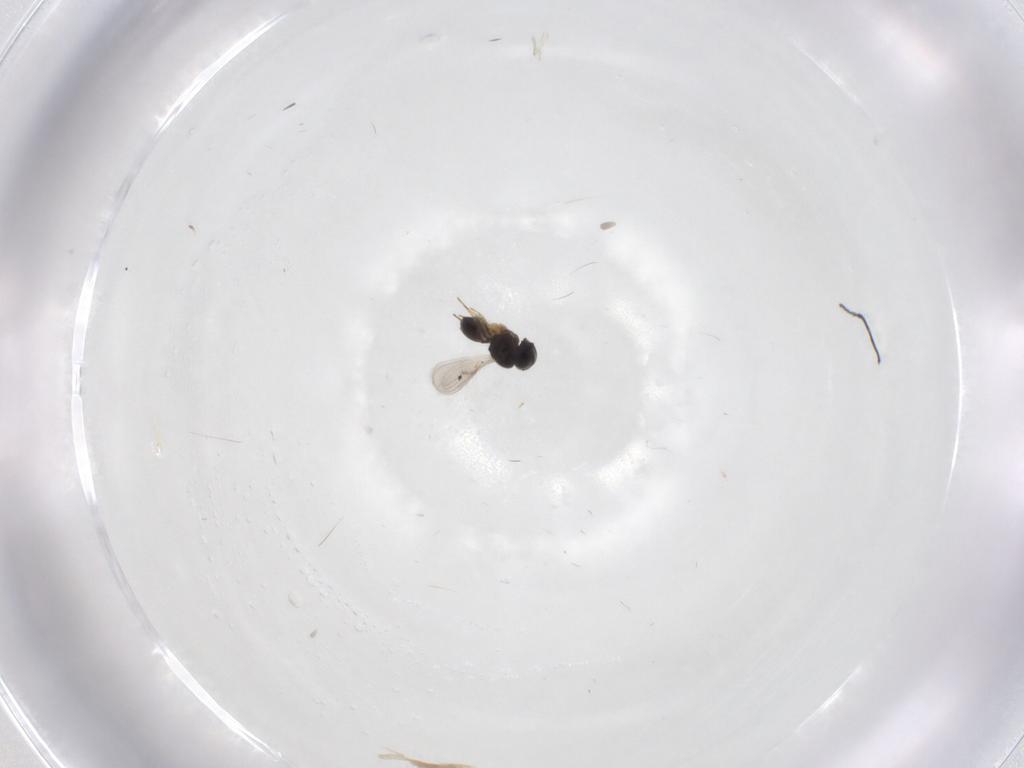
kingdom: Animalia
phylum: Arthropoda
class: Insecta
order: Hymenoptera
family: Scelionidae
